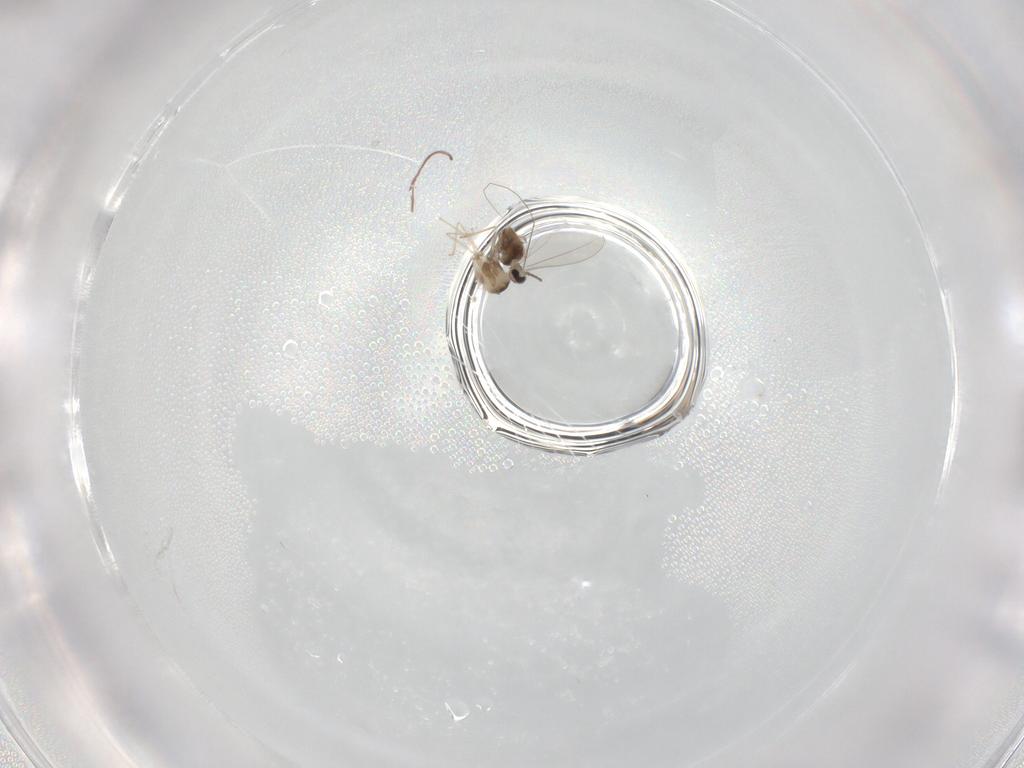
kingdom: Animalia
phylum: Arthropoda
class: Insecta
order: Diptera
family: Cecidomyiidae
